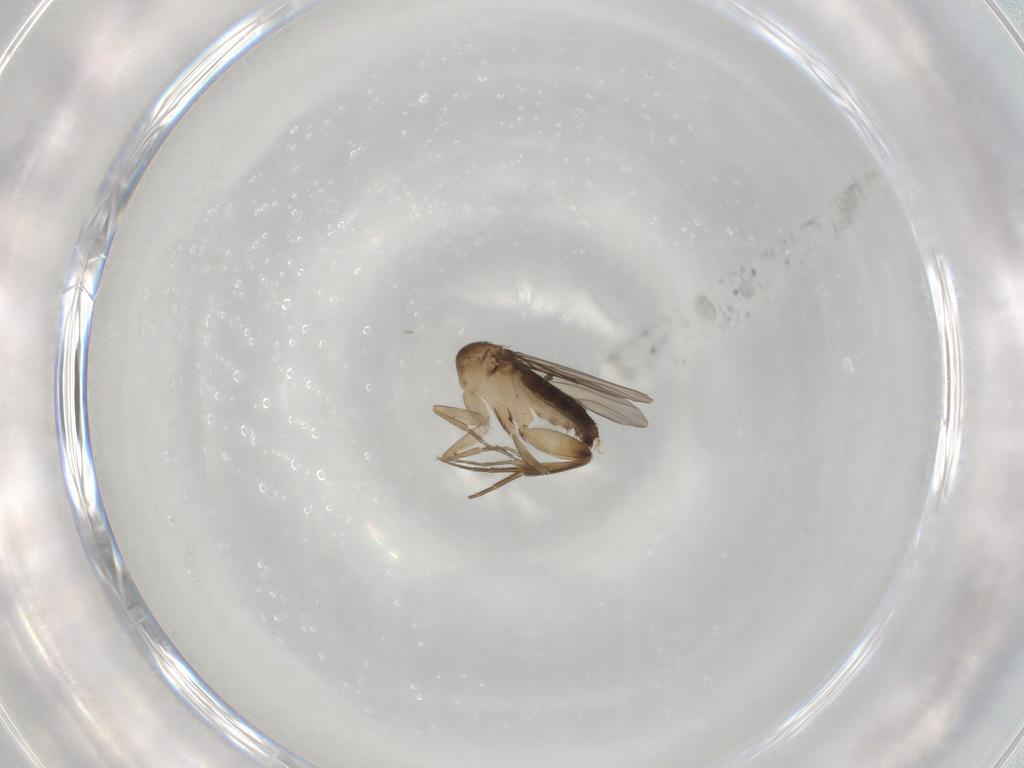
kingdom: Animalia
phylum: Arthropoda
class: Insecta
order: Diptera
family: Phoridae
